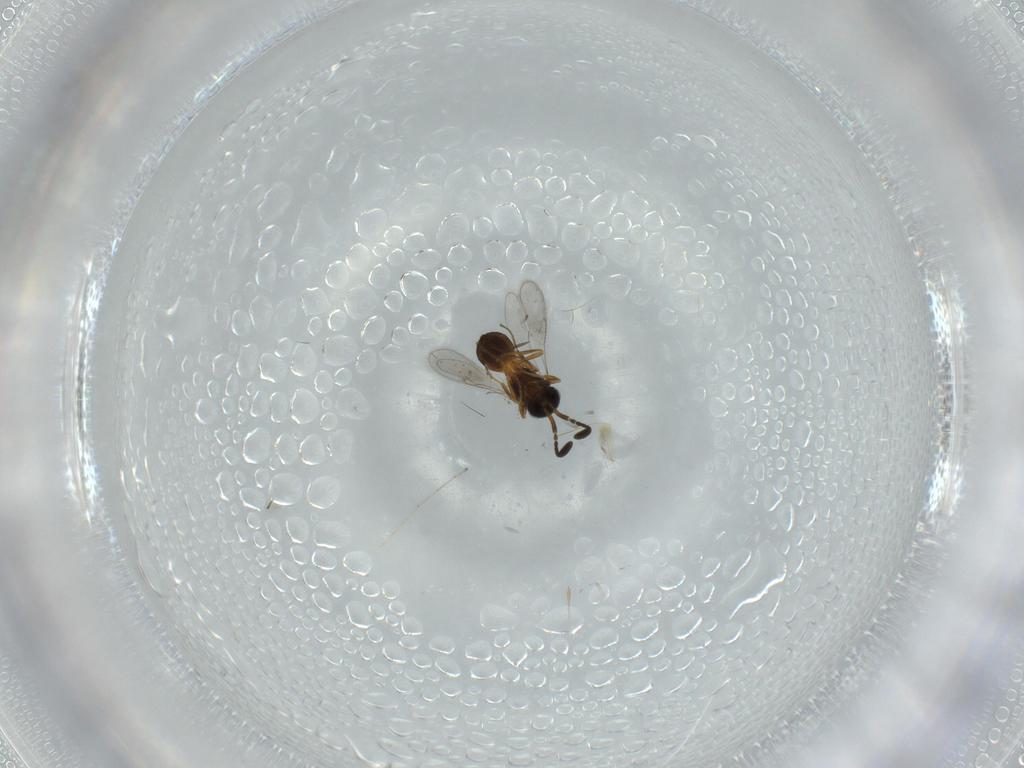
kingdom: Animalia
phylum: Arthropoda
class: Insecta
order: Hymenoptera
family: Scelionidae
